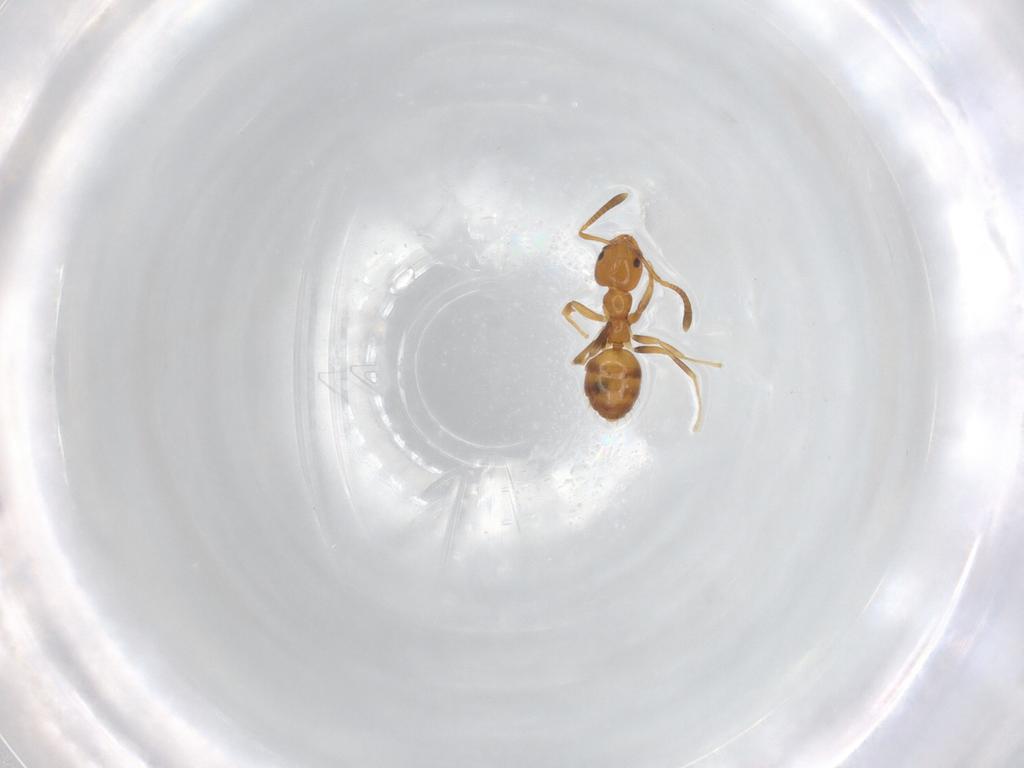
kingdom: Animalia
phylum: Arthropoda
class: Insecta
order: Hymenoptera
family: Formicidae
